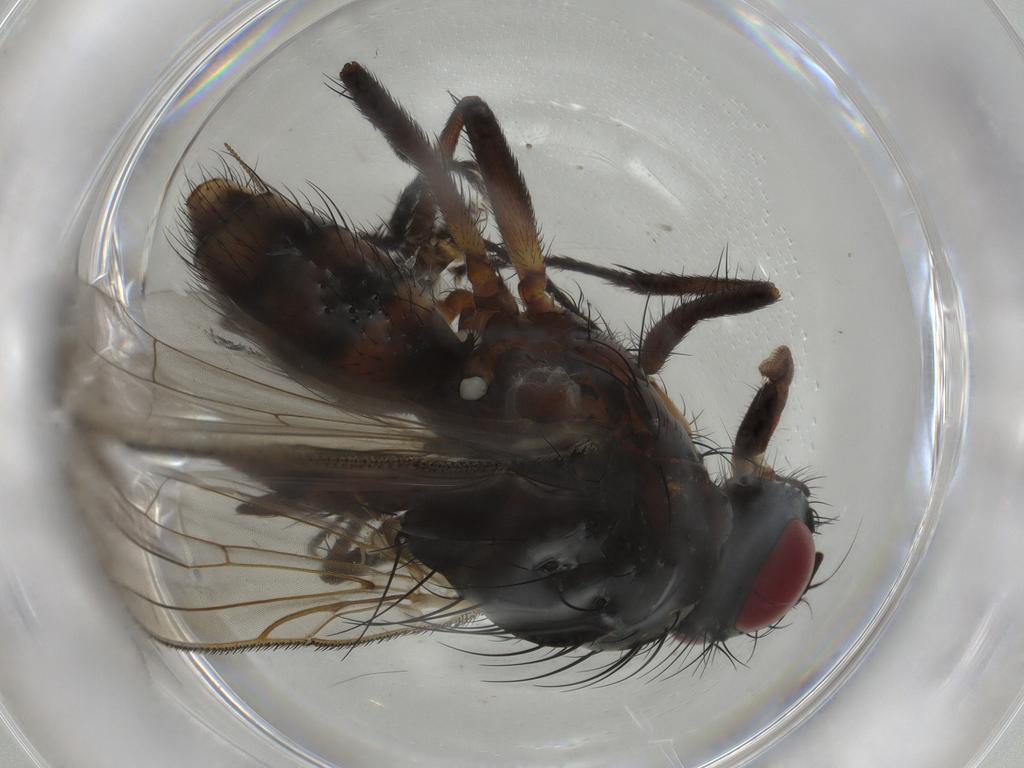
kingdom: Animalia
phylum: Arthropoda
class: Insecta
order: Diptera
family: Anthomyiidae
